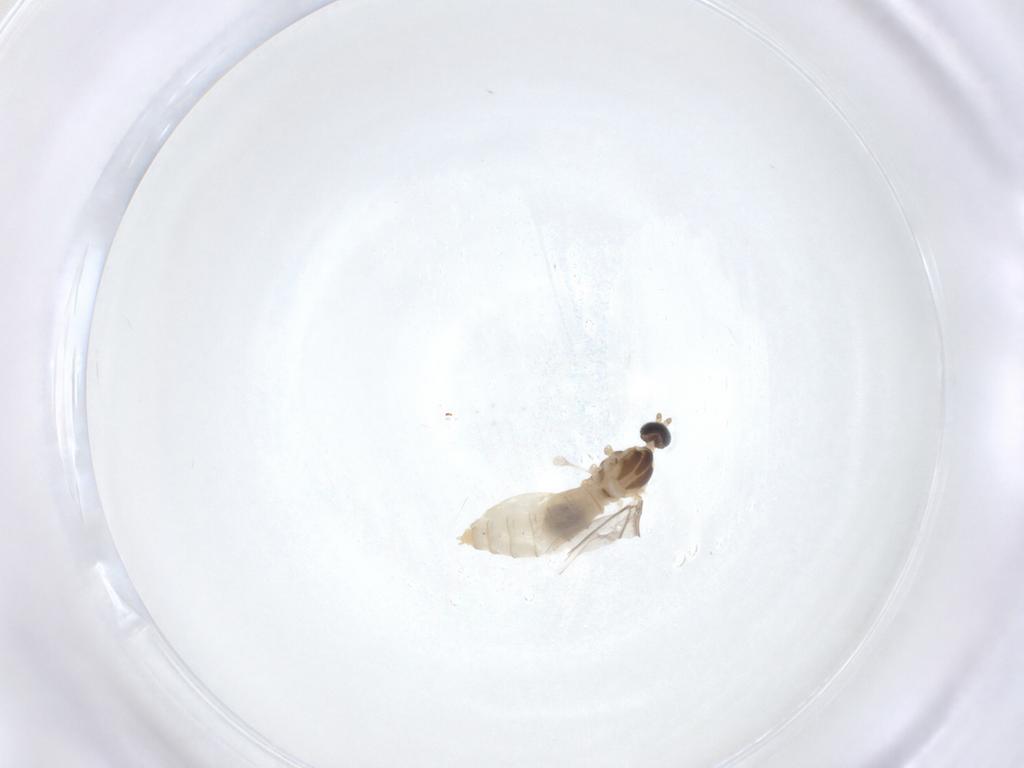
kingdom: Animalia
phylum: Arthropoda
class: Insecta
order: Diptera
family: Cecidomyiidae
